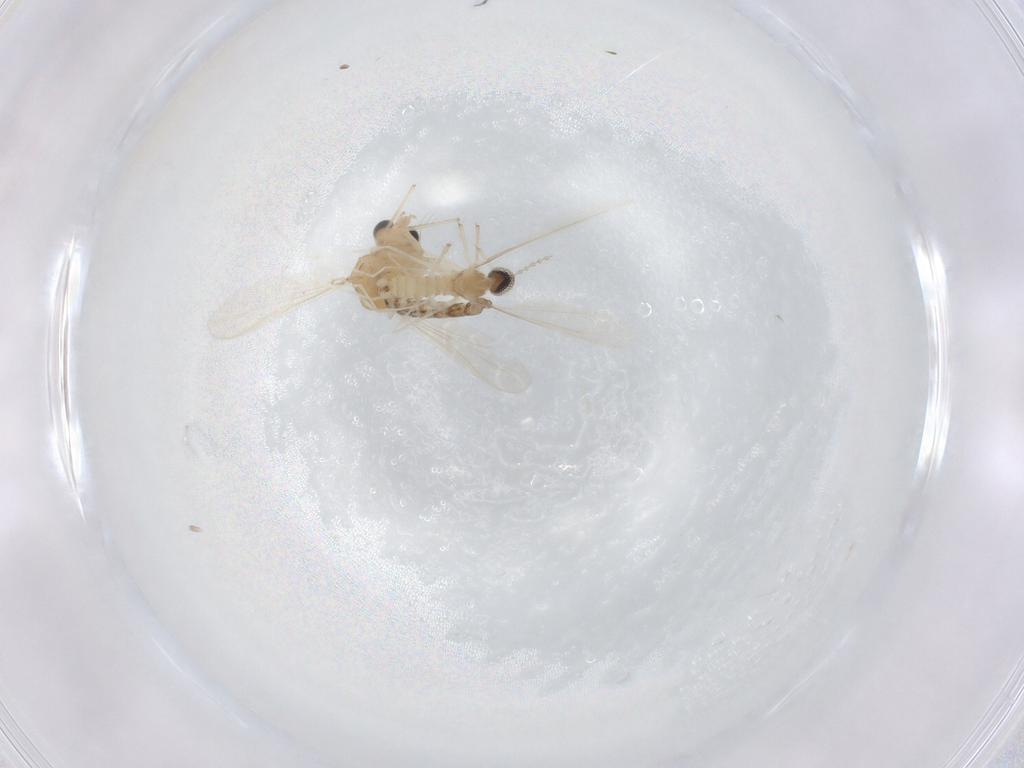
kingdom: Animalia
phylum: Arthropoda
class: Insecta
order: Diptera
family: Cecidomyiidae
